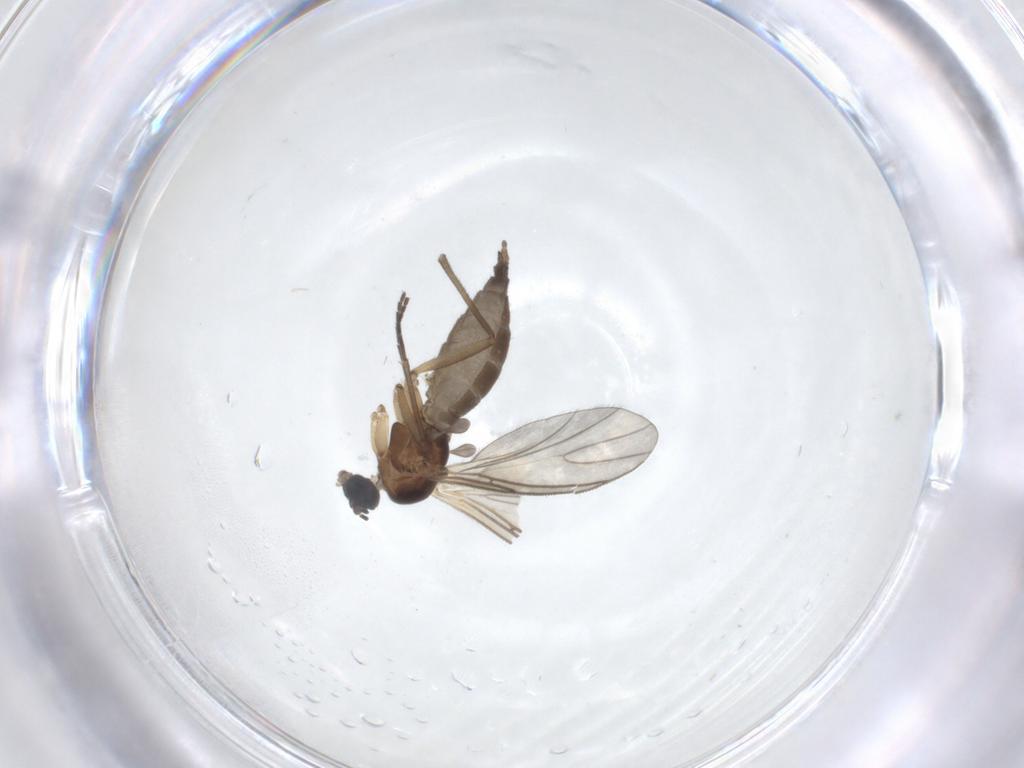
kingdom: Animalia
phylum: Arthropoda
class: Insecta
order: Diptera
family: Sciaridae
